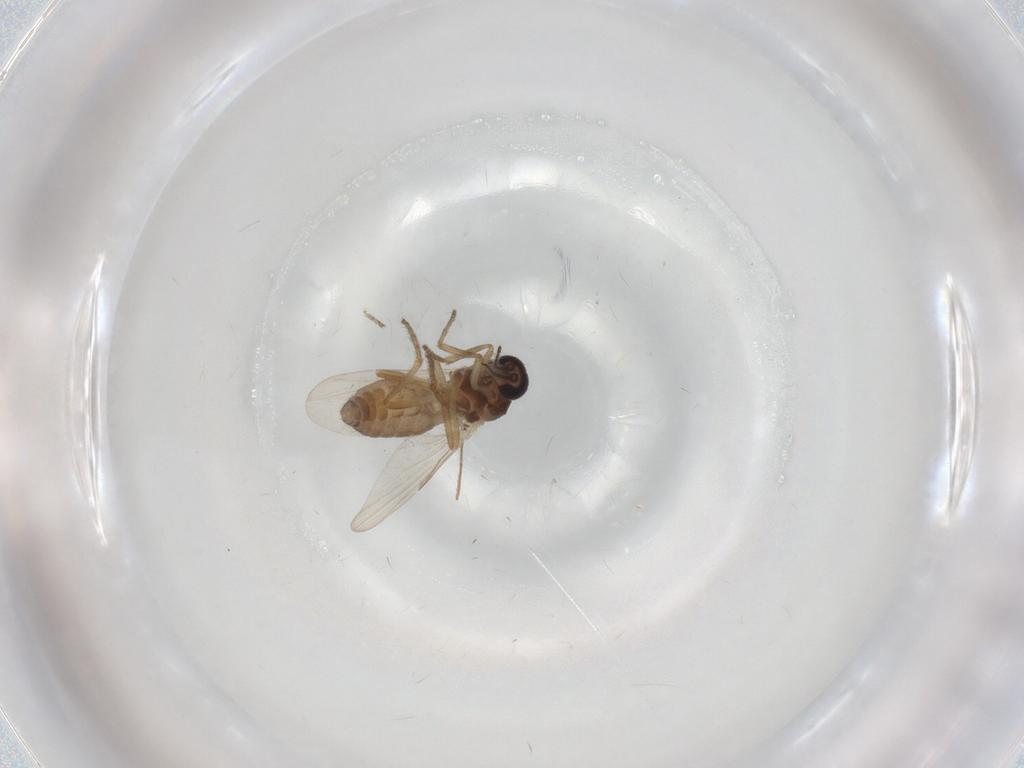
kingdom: Animalia
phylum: Arthropoda
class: Insecta
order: Diptera
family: Ceratopogonidae
